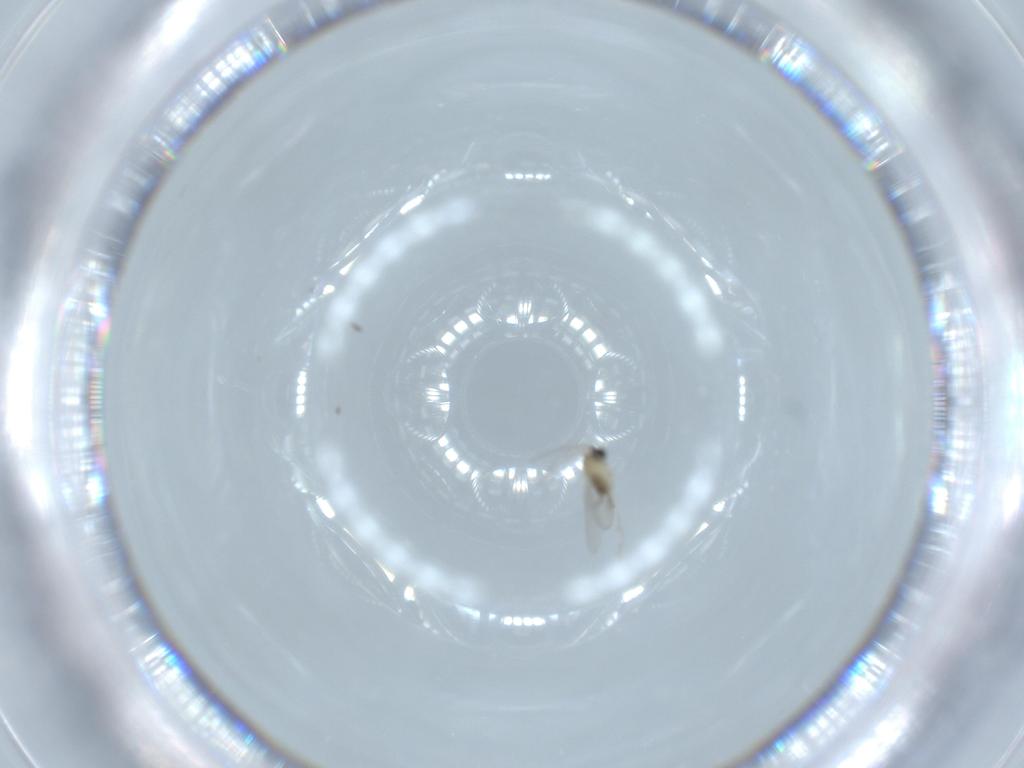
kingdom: Animalia
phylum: Arthropoda
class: Insecta
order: Diptera
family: Cecidomyiidae
